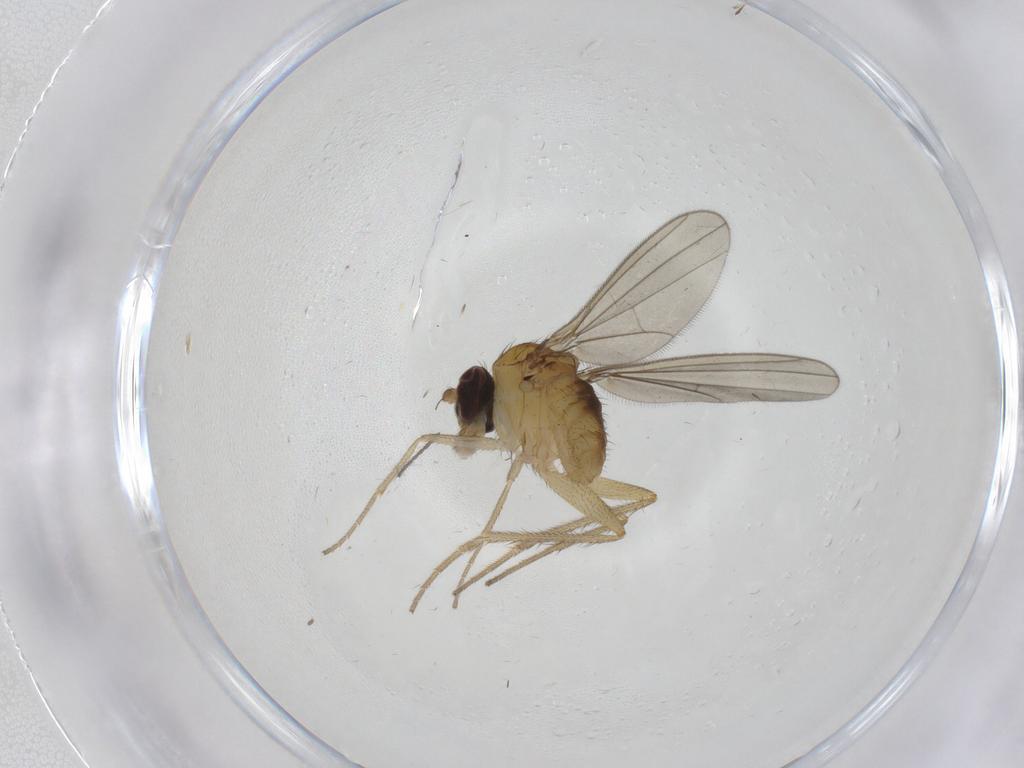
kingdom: Animalia
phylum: Arthropoda
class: Insecta
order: Diptera
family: Dolichopodidae
